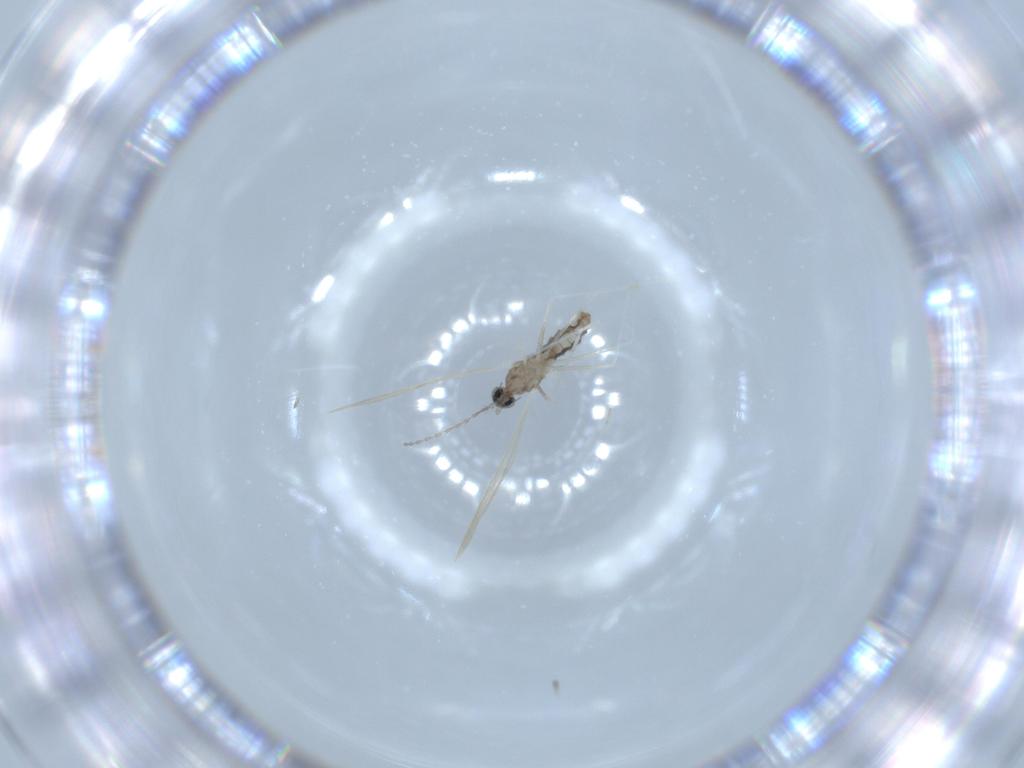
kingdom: Animalia
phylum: Arthropoda
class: Insecta
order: Diptera
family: Cecidomyiidae
